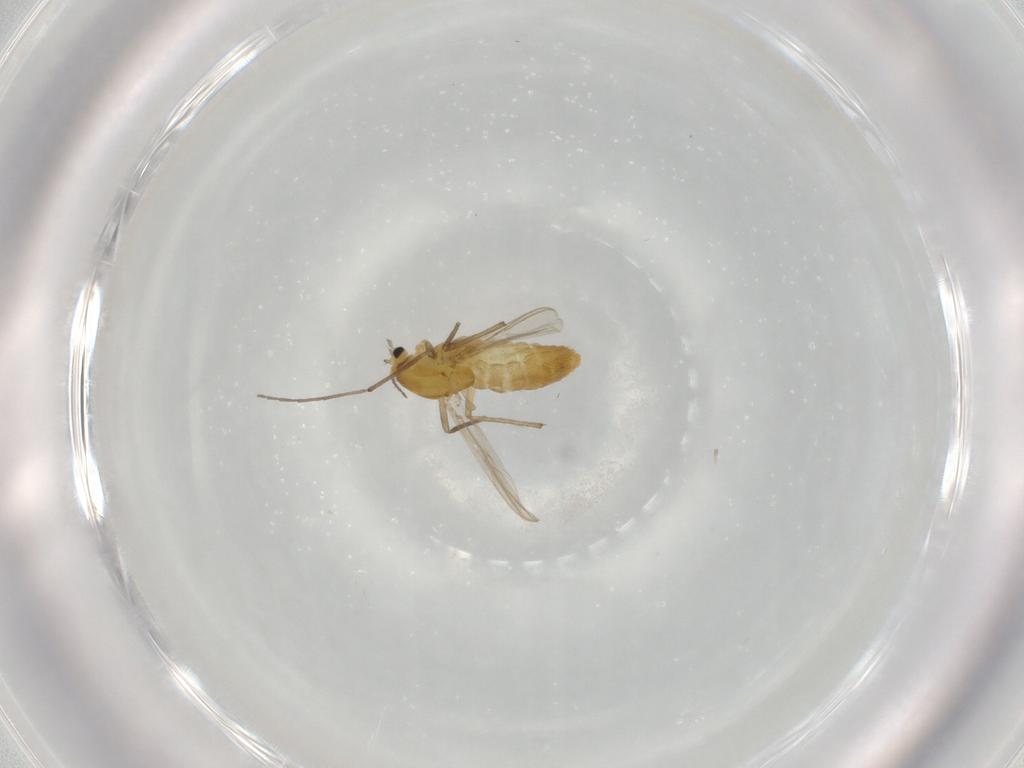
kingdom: Animalia
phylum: Arthropoda
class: Insecta
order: Diptera
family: Chironomidae
